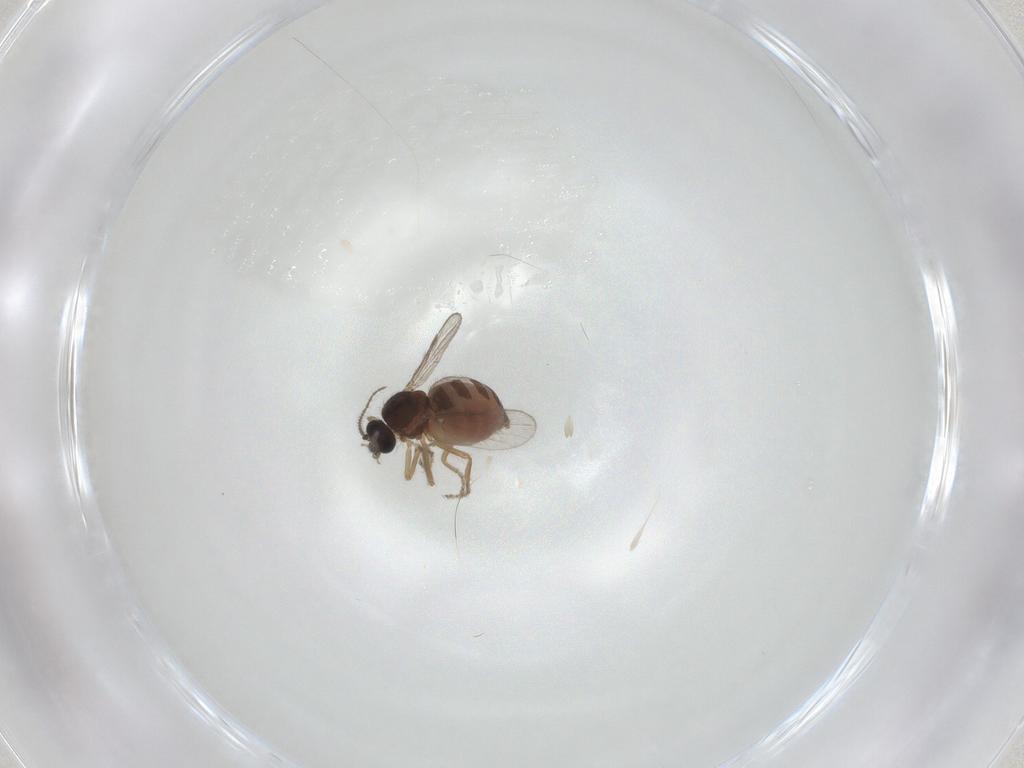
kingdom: Animalia
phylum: Arthropoda
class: Insecta
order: Diptera
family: Ceratopogonidae
